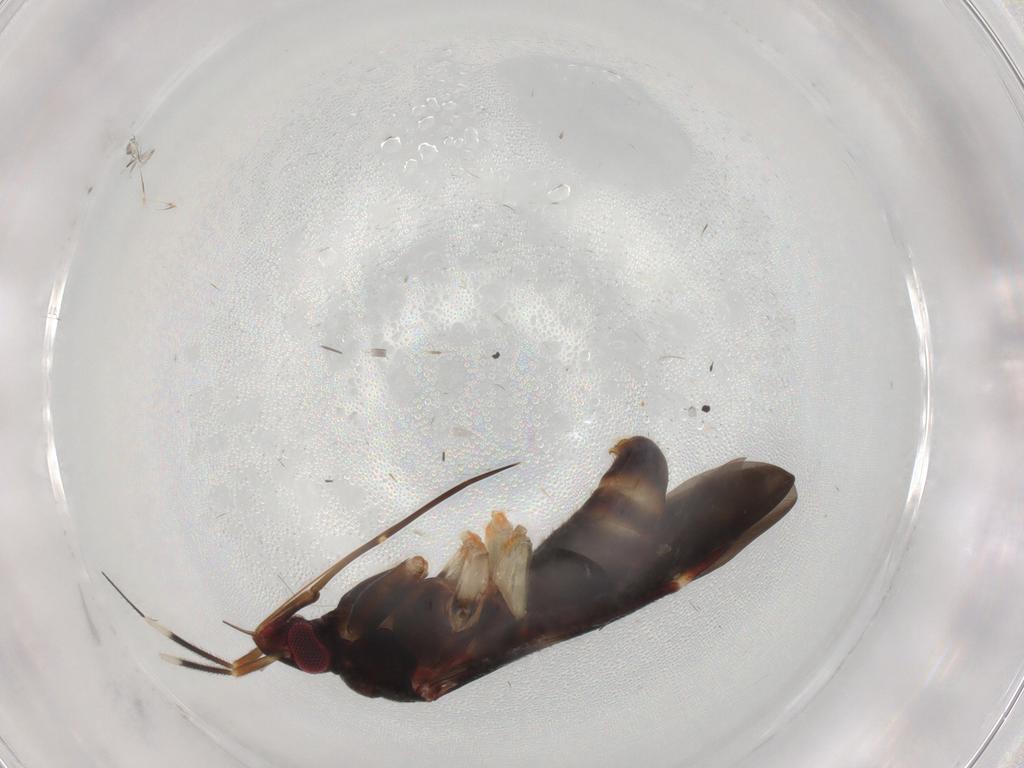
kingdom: Animalia
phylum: Arthropoda
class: Insecta
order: Hemiptera
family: Miridae
